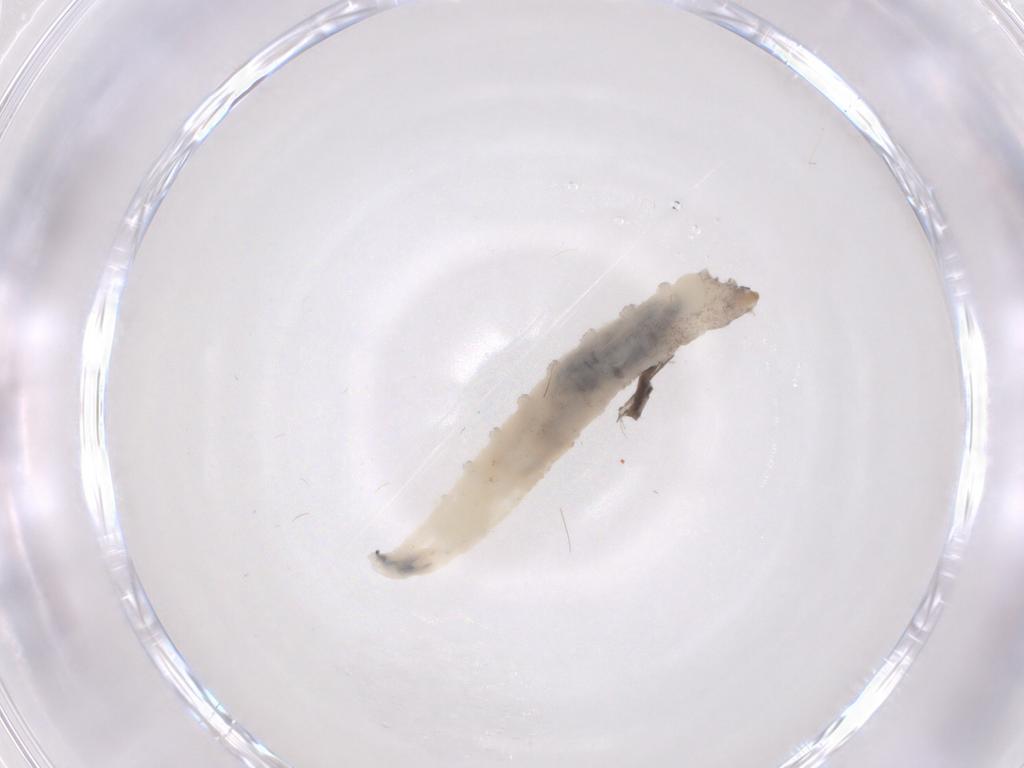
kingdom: Animalia
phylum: Arthropoda
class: Insecta
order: Diptera
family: Drosophilidae
